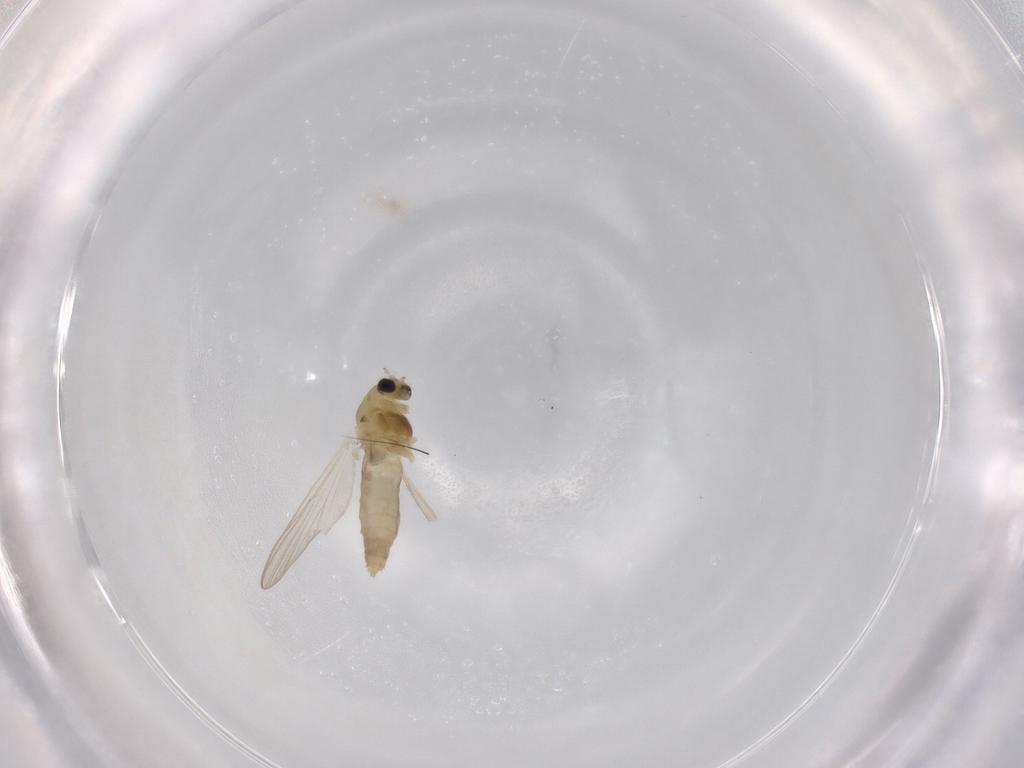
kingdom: Animalia
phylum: Arthropoda
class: Insecta
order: Diptera
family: Chironomidae
